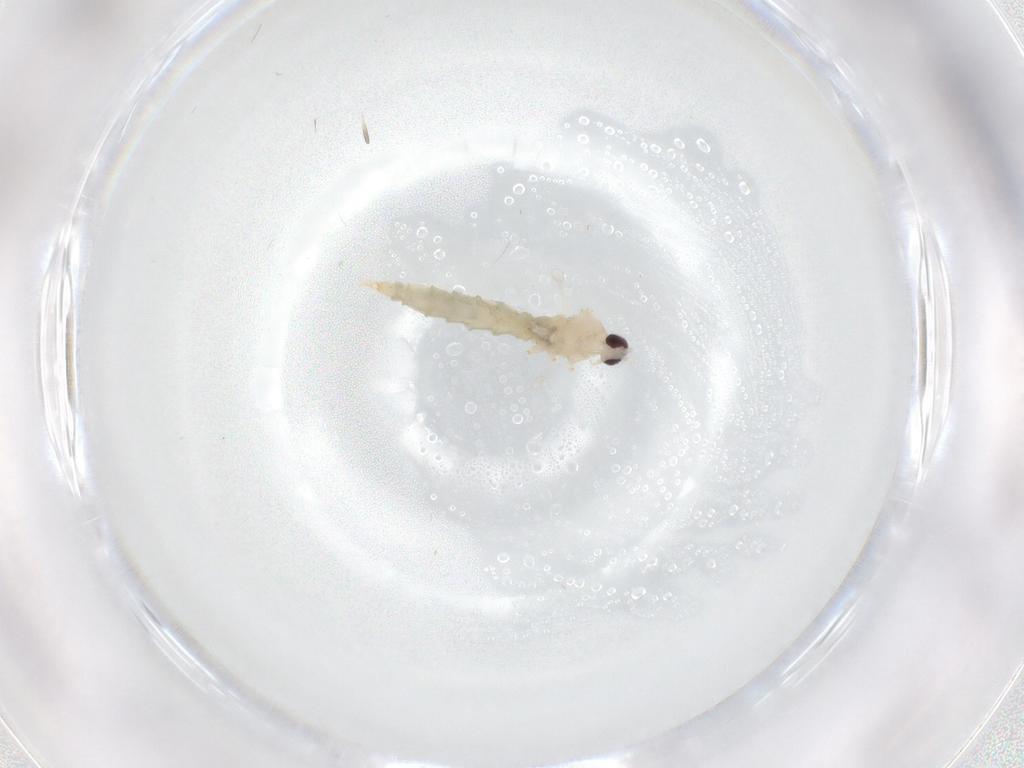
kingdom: Animalia
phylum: Arthropoda
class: Insecta
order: Diptera
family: Cecidomyiidae
